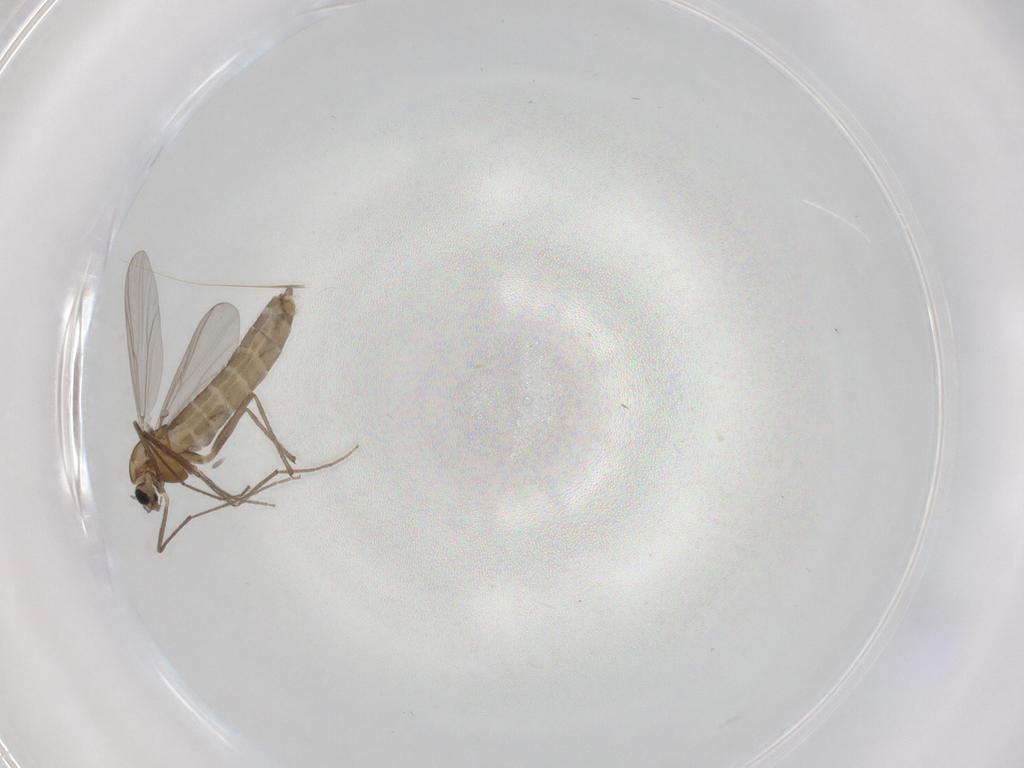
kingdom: Animalia
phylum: Arthropoda
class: Insecta
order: Diptera
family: Chironomidae
